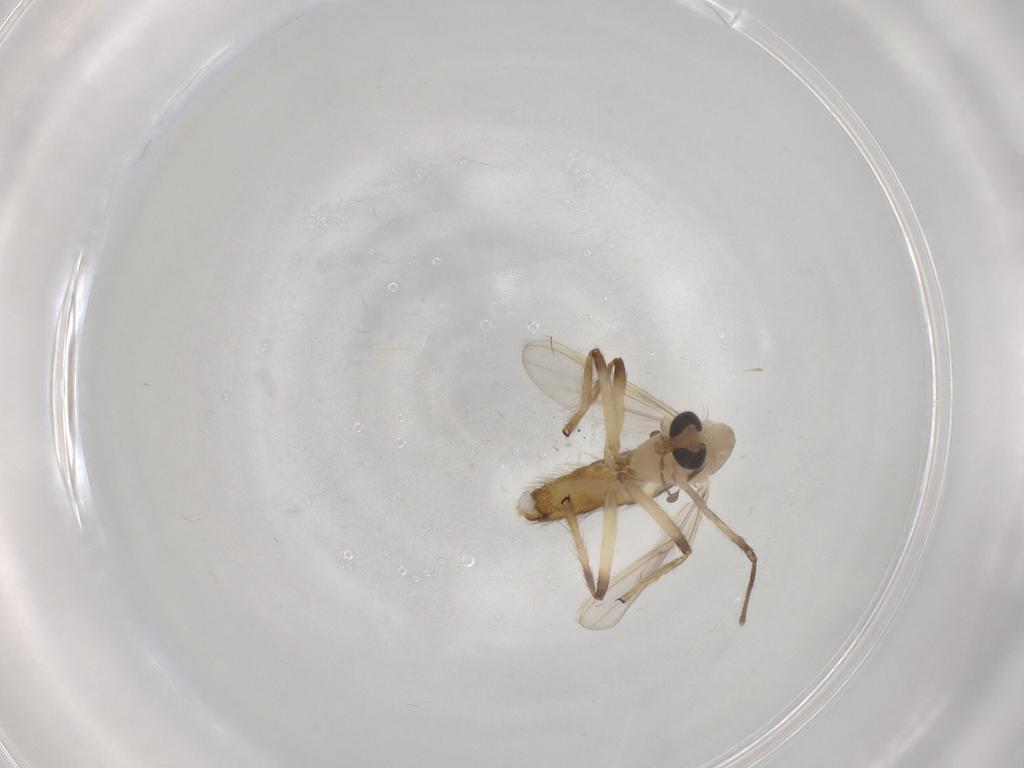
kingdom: Animalia
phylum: Arthropoda
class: Insecta
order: Diptera
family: Chironomidae
